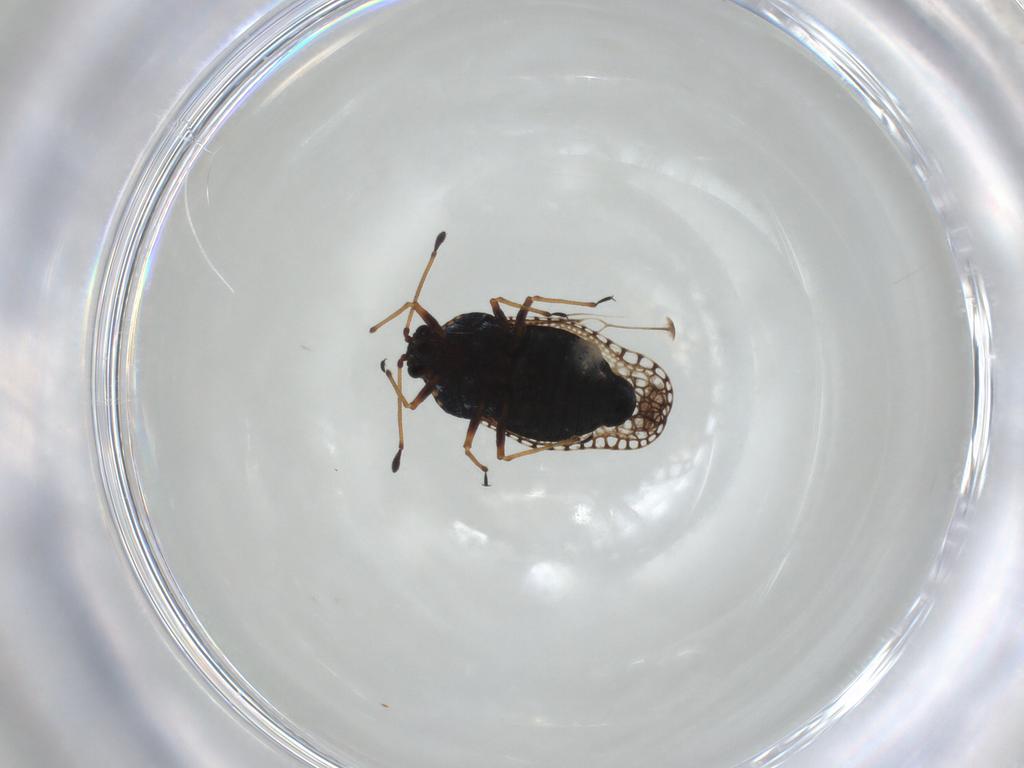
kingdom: Animalia
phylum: Arthropoda
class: Insecta
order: Hemiptera
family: Tingidae
